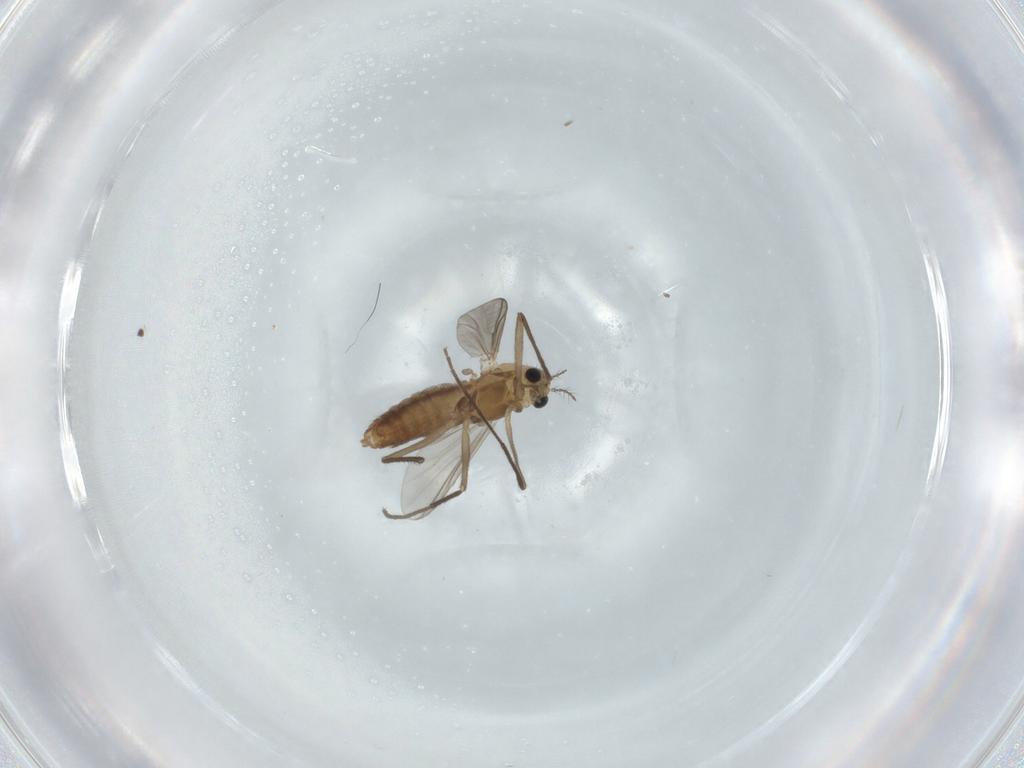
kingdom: Animalia
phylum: Arthropoda
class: Insecta
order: Diptera
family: Chironomidae
